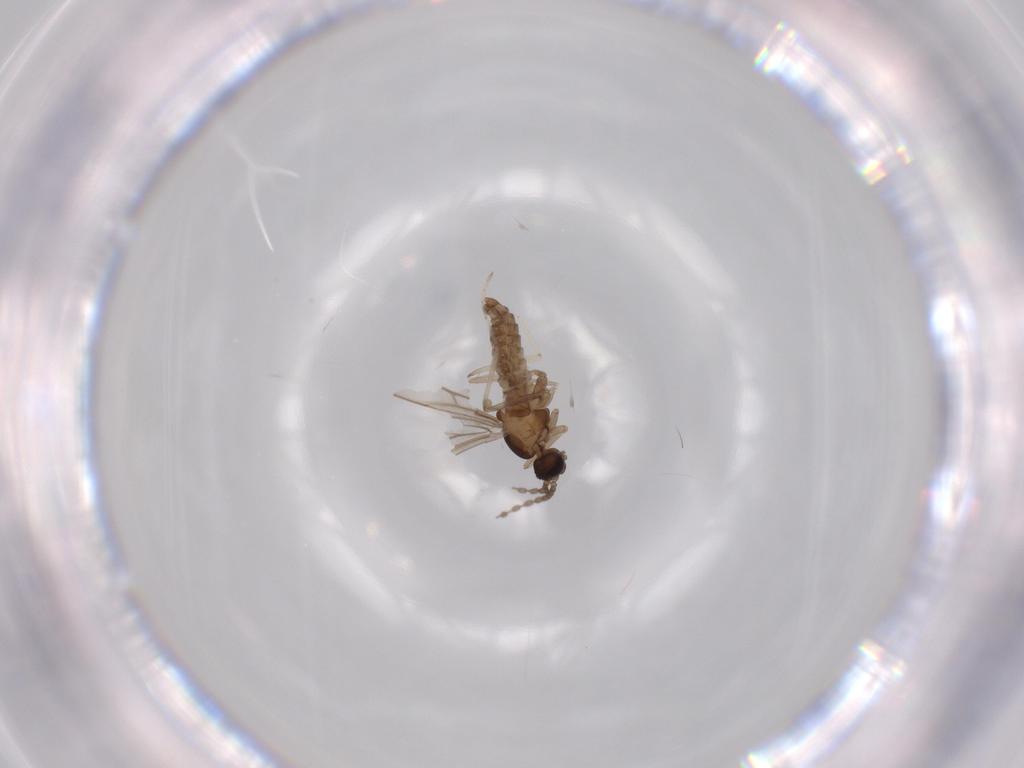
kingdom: Animalia
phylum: Arthropoda
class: Insecta
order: Diptera
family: Cecidomyiidae
